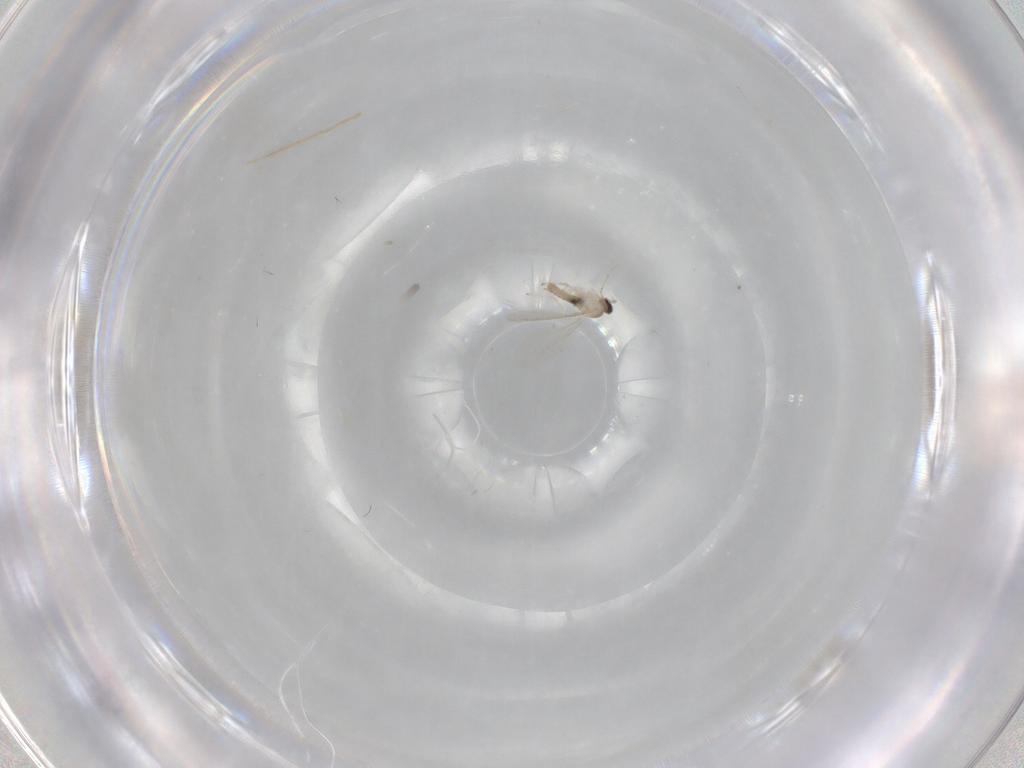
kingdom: Animalia
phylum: Arthropoda
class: Insecta
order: Diptera
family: Cecidomyiidae
